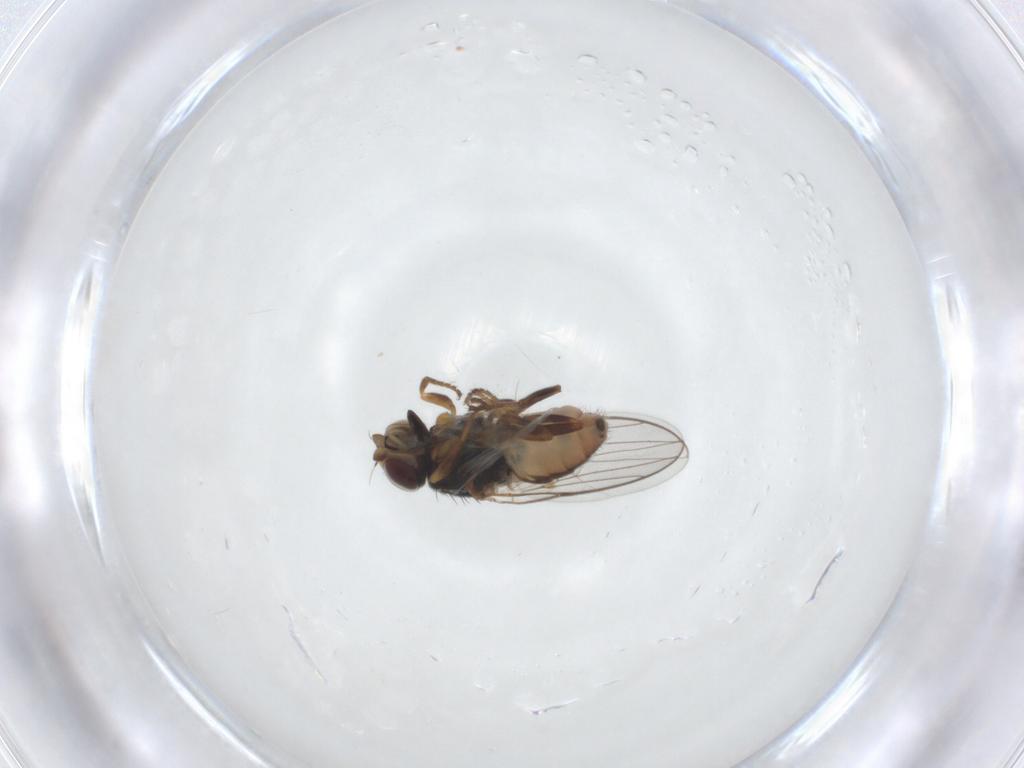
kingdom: Animalia
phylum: Arthropoda
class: Insecta
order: Diptera
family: Chloropidae
